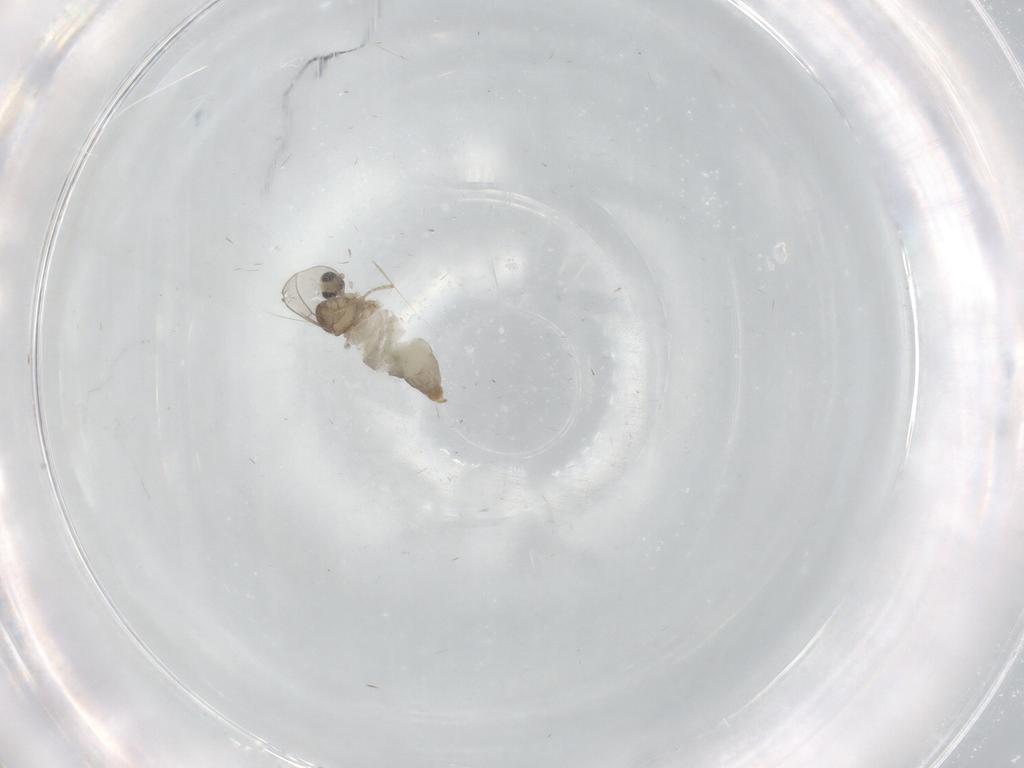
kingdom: Animalia
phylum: Arthropoda
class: Insecta
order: Diptera
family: Cecidomyiidae
